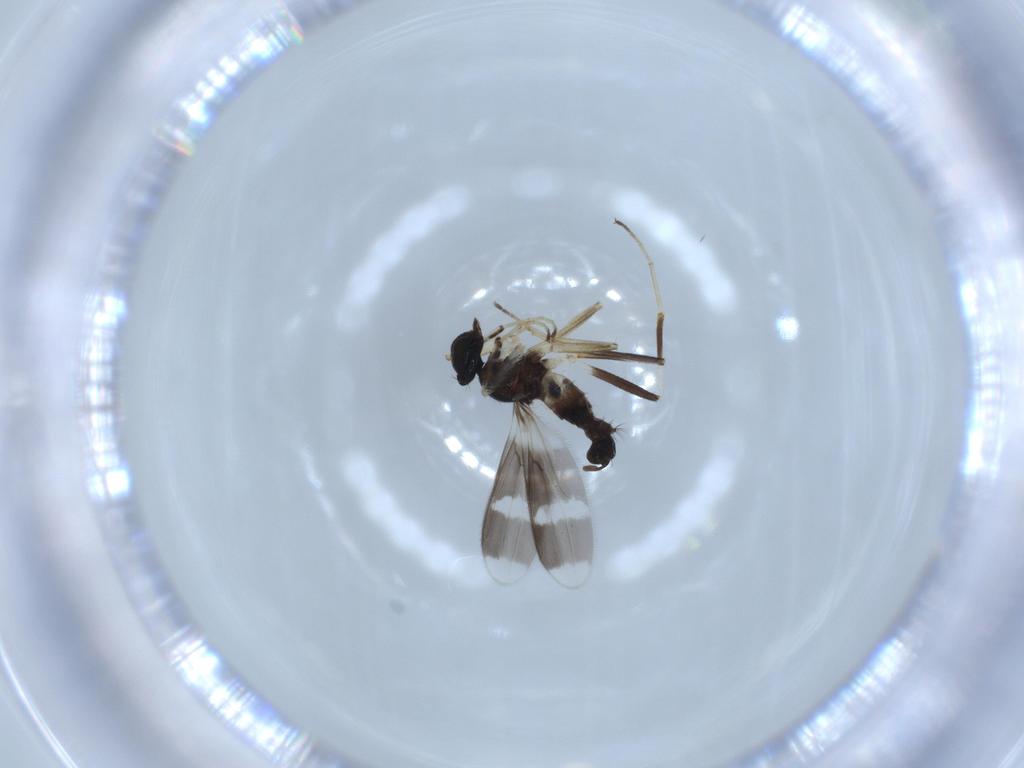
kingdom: Animalia
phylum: Arthropoda
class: Insecta
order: Diptera
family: Hybotidae
